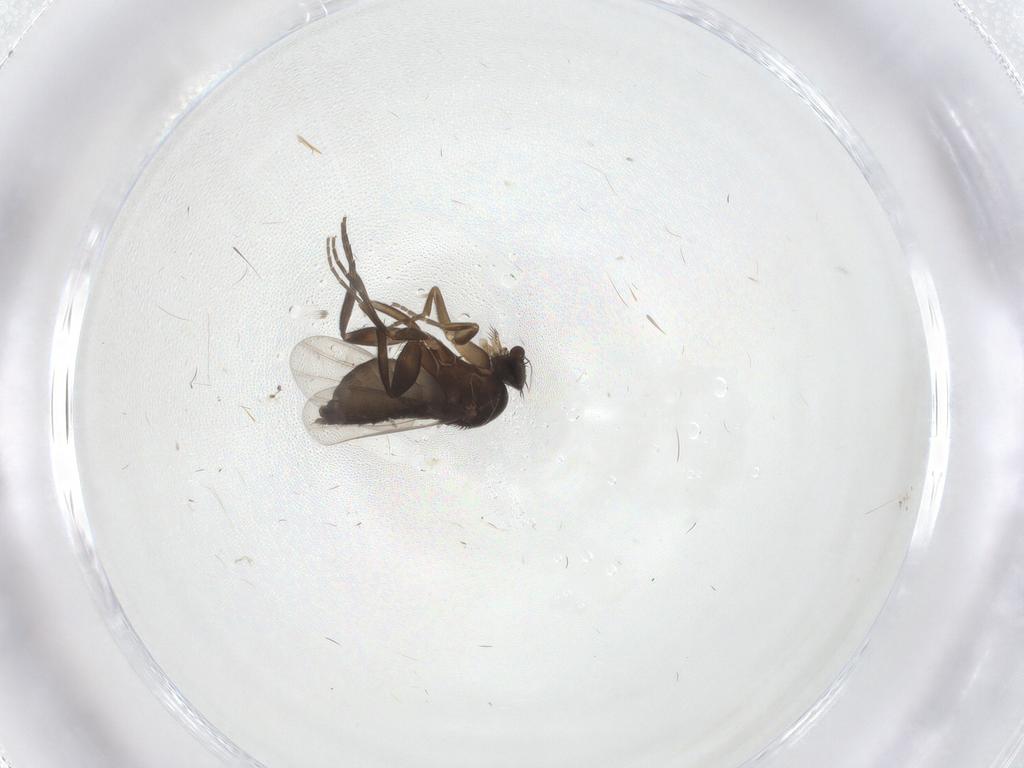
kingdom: Animalia
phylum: Arthropoda
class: Insecta
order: Diptera
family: Phoridae
